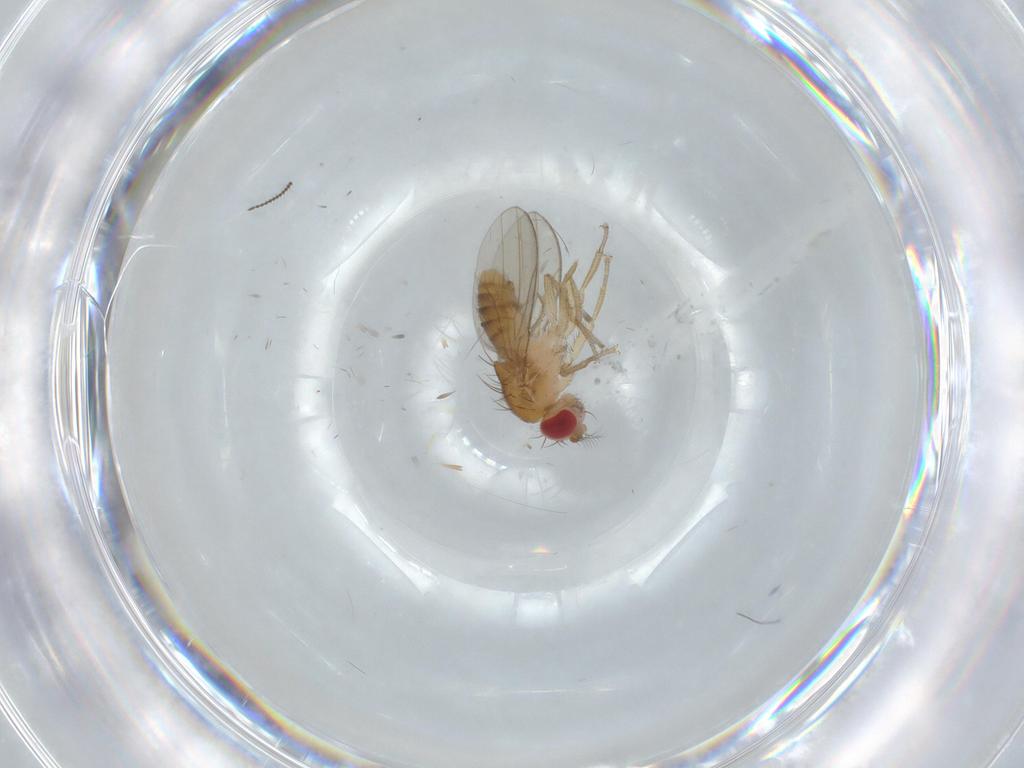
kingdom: Animalia
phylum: Arthropoda
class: Insecta
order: Diptera
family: Drosophilidae
